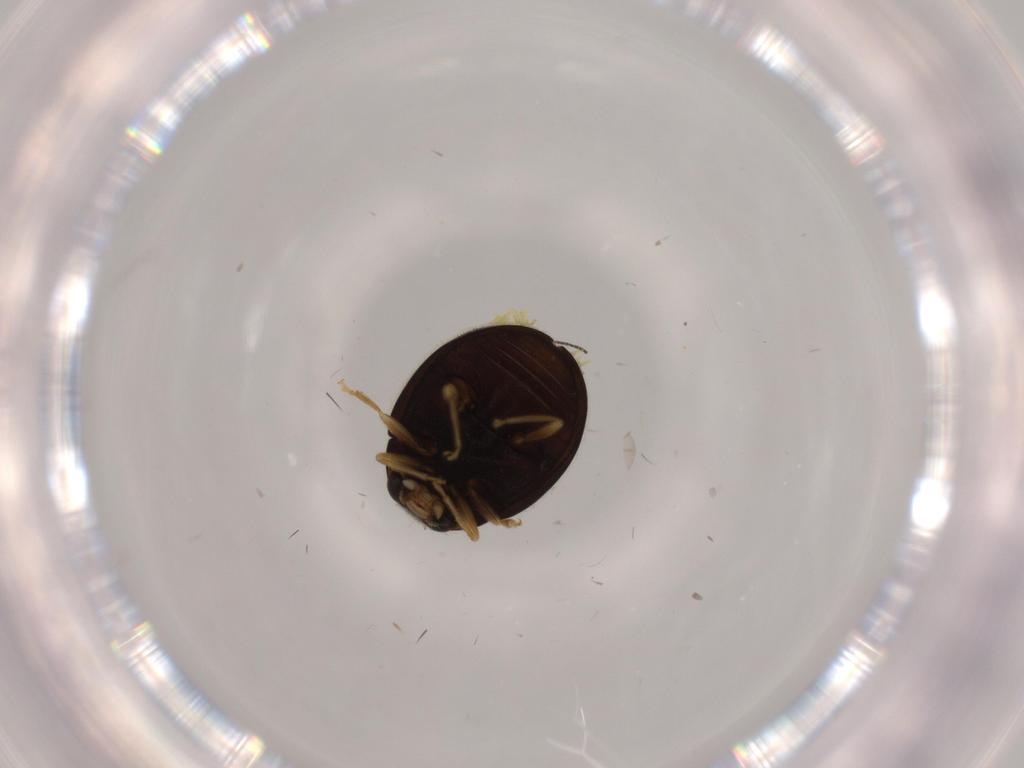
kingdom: Animalia
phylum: Arthropoda
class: Insecta
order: Coleoptera
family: Coccinellidae
